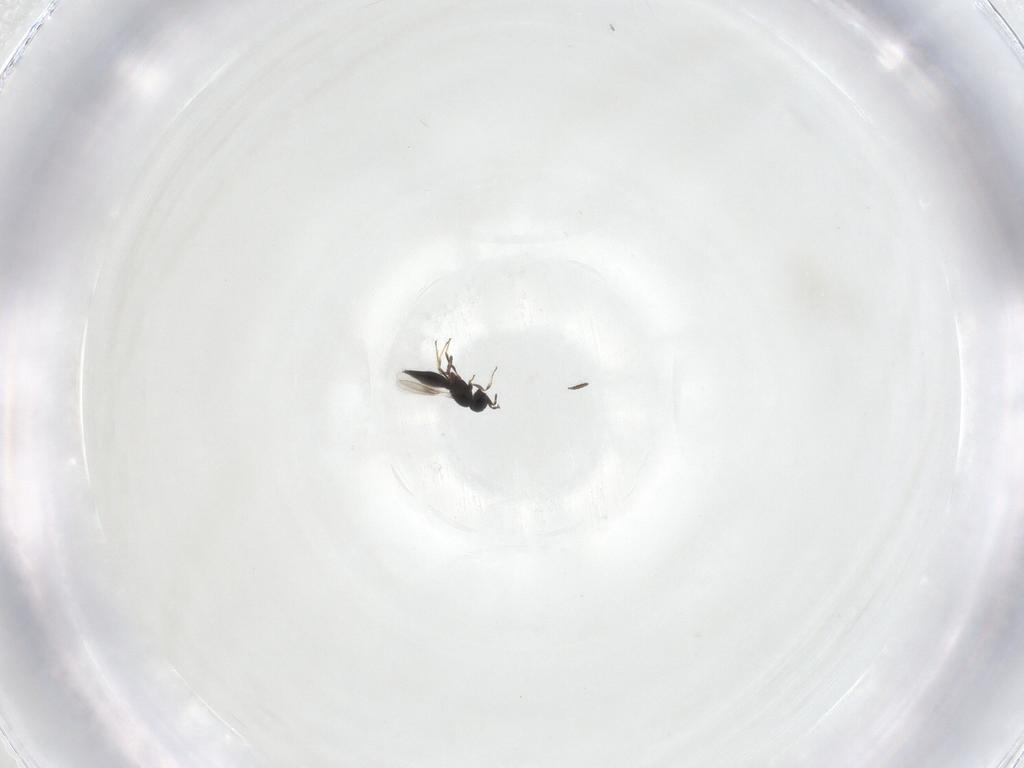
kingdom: Animalia
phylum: Arthropoda
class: Insecta
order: Hymenoptera
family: Scelionidae
